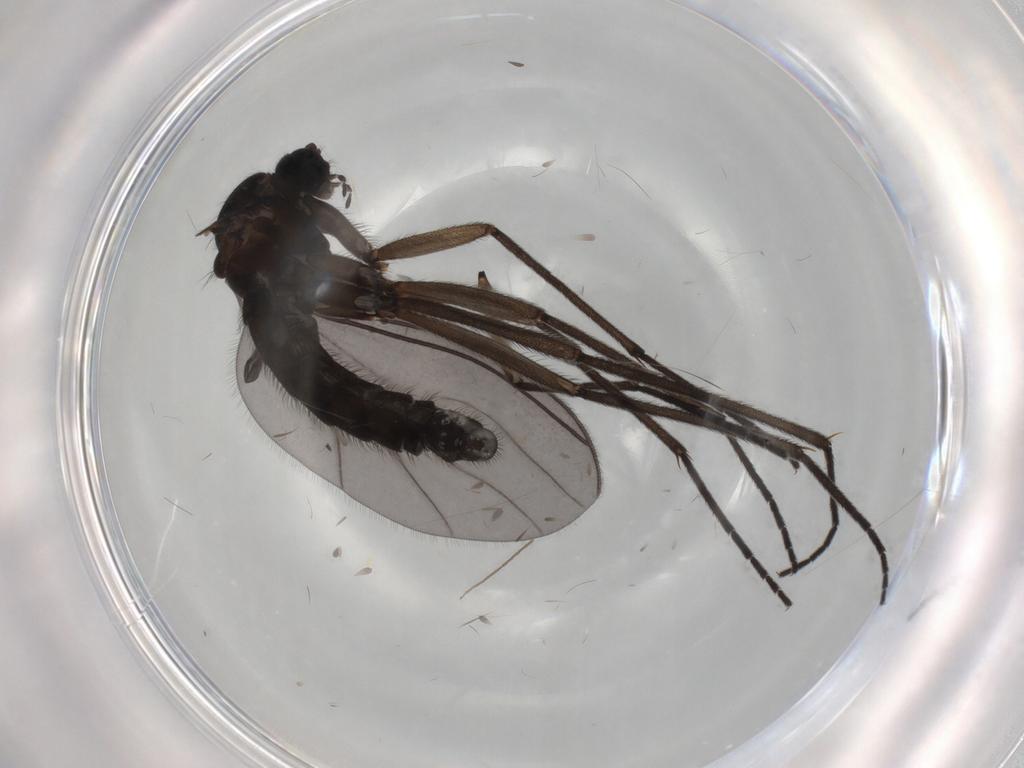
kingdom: Animalia
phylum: Arthropoda
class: Insecta
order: Diptera
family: Sciaridae
